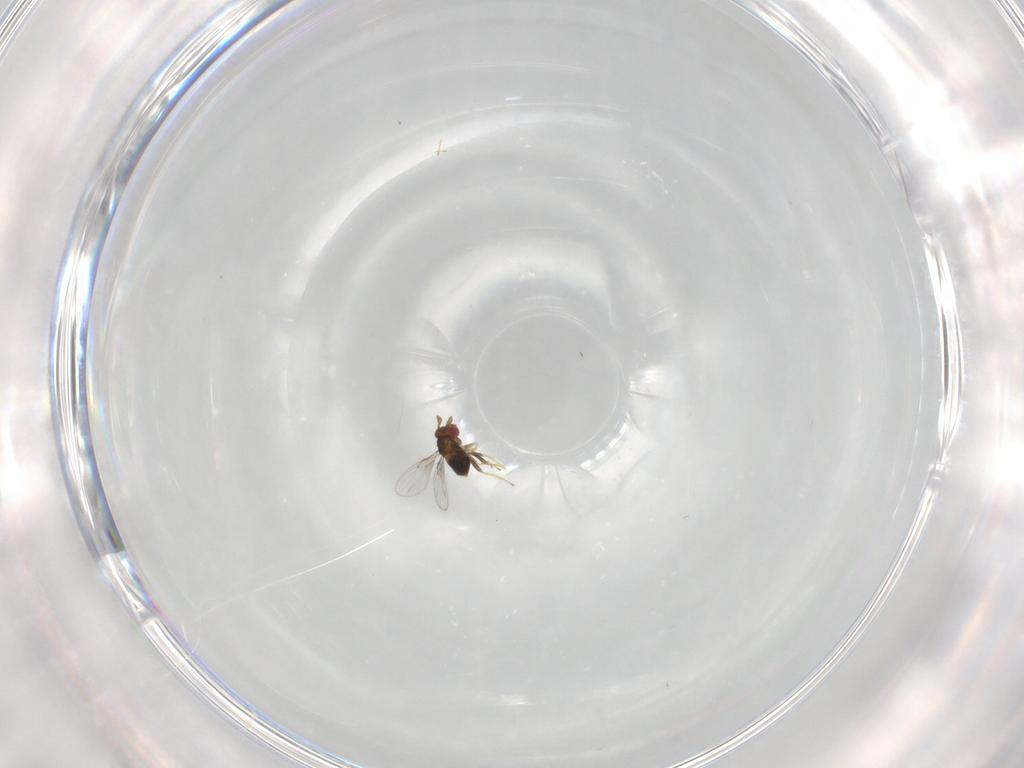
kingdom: Animalia
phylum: Arthropoda
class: Insecta
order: Hymenoptera
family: Trichogrammatidae
